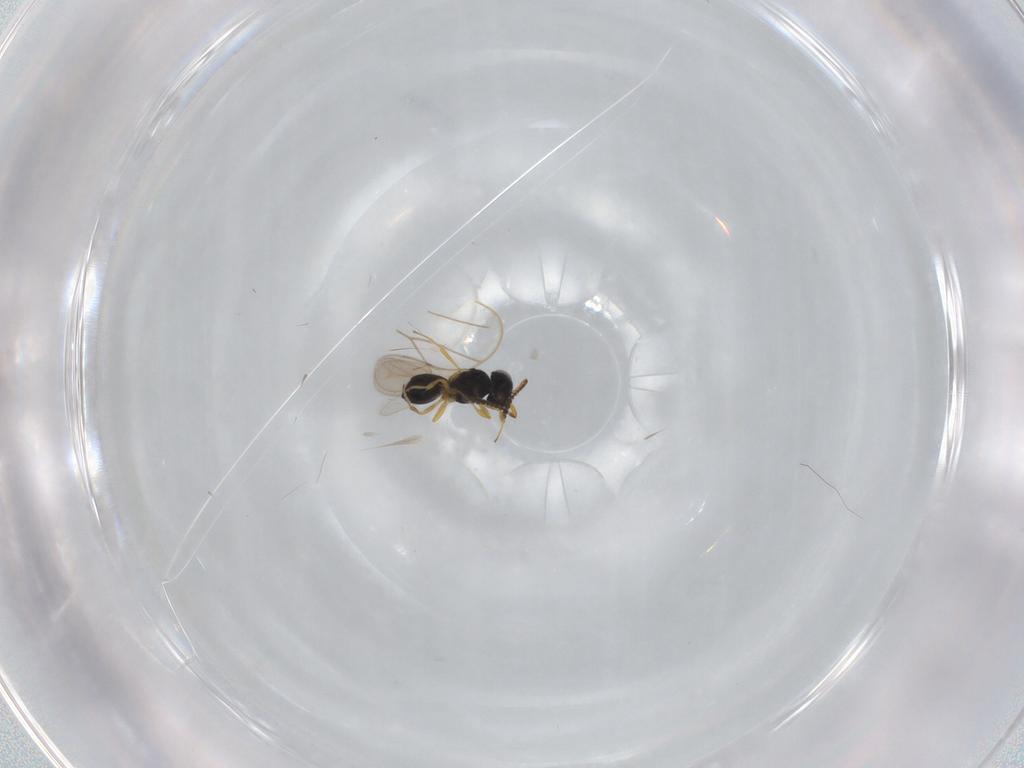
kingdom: Animalia
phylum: Arthropoda
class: Insecta
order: Hymenoptera
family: Scelionidae
